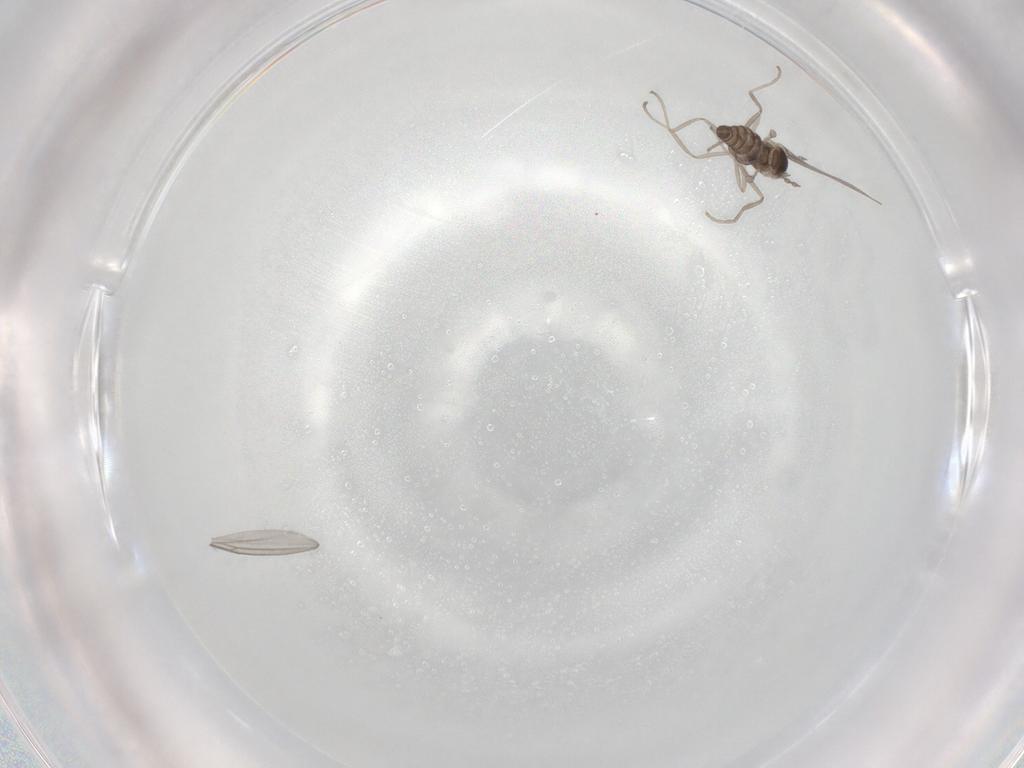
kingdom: Animalia
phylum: Arthropoda
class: Insecta
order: Diptera
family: Cecidomyiidae
